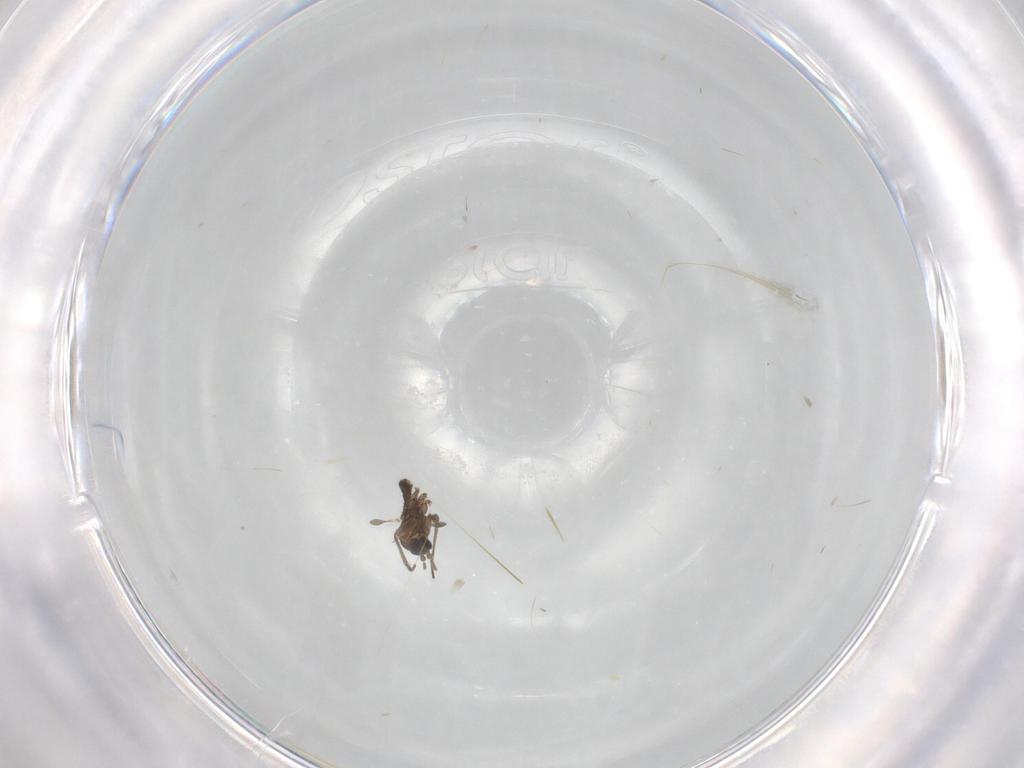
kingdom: Animalia
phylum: Arthropoda
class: Insecta
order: Diptera
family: Sciaridae
